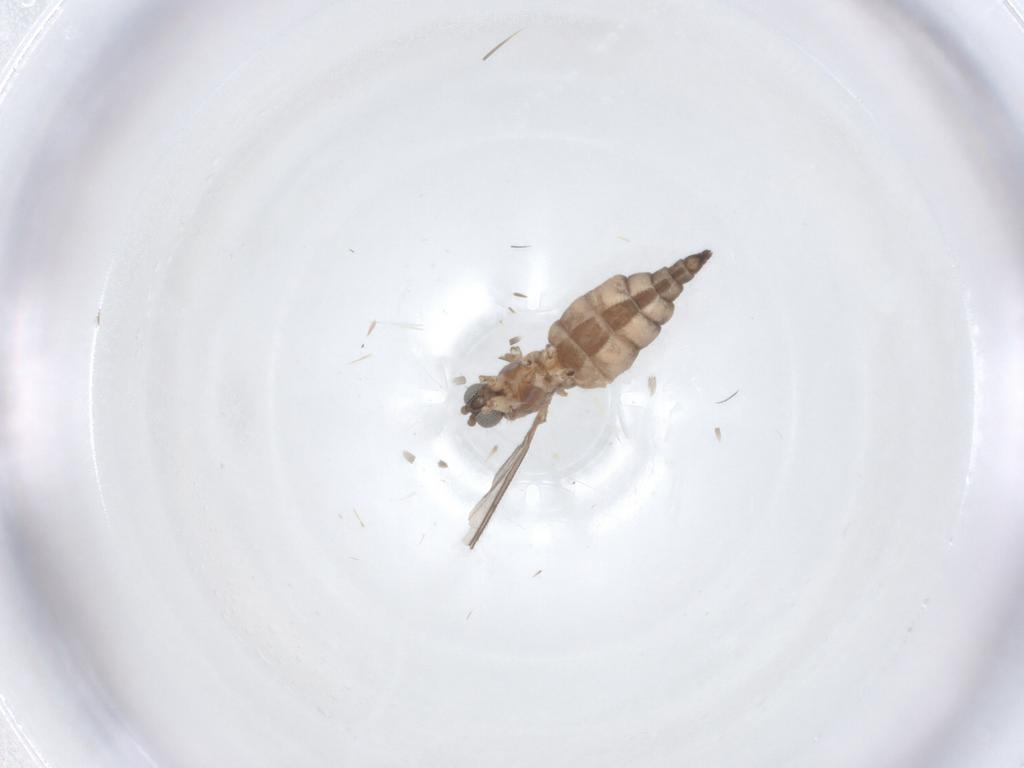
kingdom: Animalia
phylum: Arthropoda
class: Insecta
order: Diptera
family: Sciaridae
